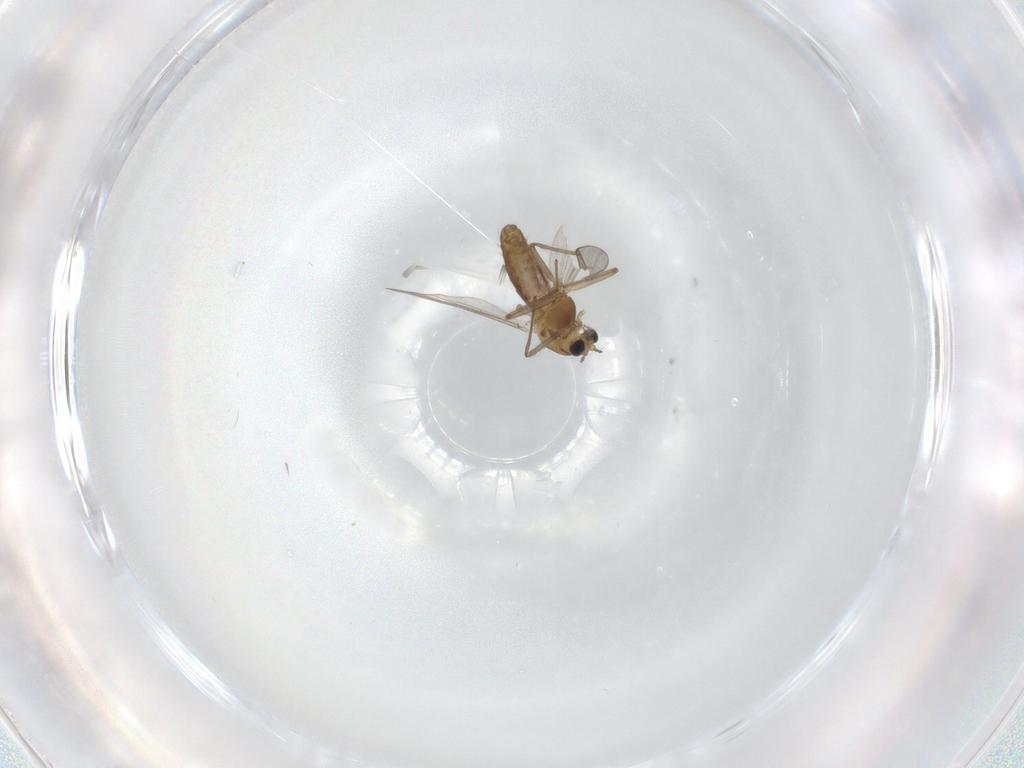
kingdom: Animalia
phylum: Arthropoda
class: Insecta
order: Diptera
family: Chironomidae
